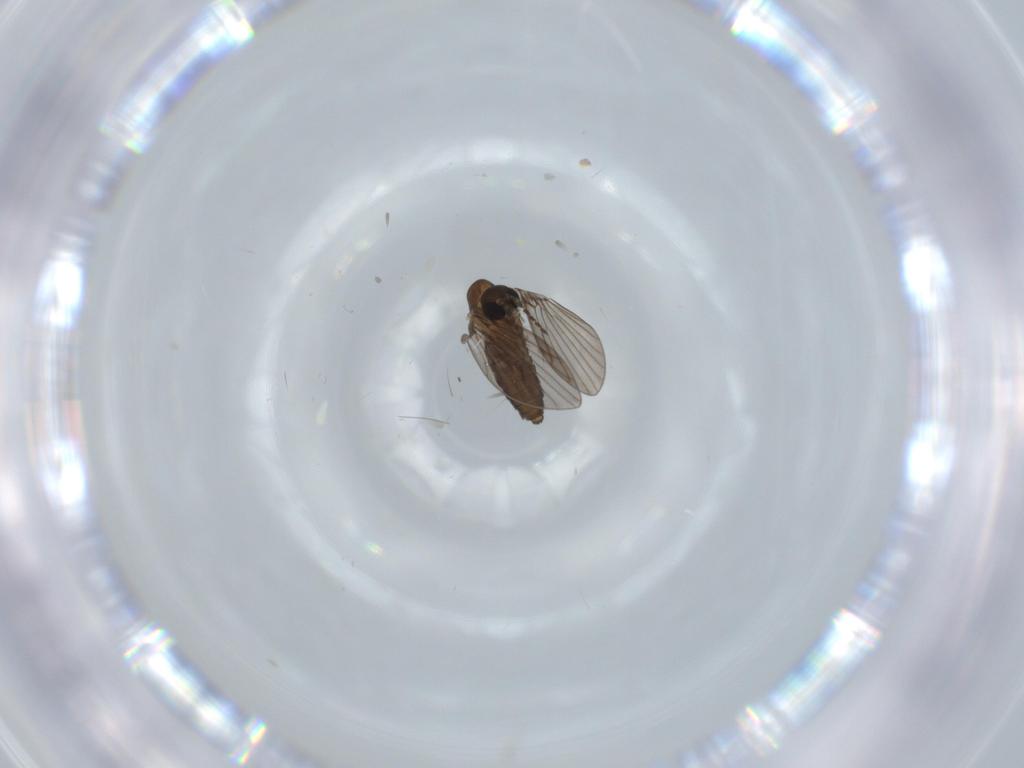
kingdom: Animalia
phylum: Arthropoda
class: Insecta
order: Diptera
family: Psychodidae
